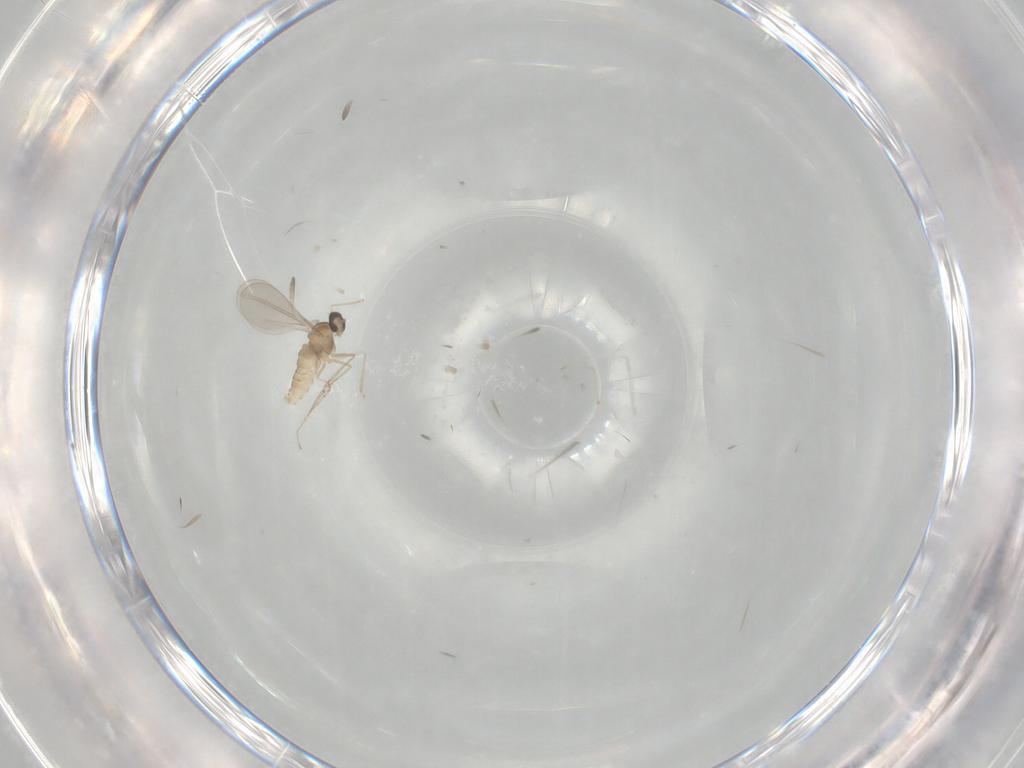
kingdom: Animalia
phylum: Arthropoda
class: Insecta
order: Diptera
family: Cecidomyiidae
